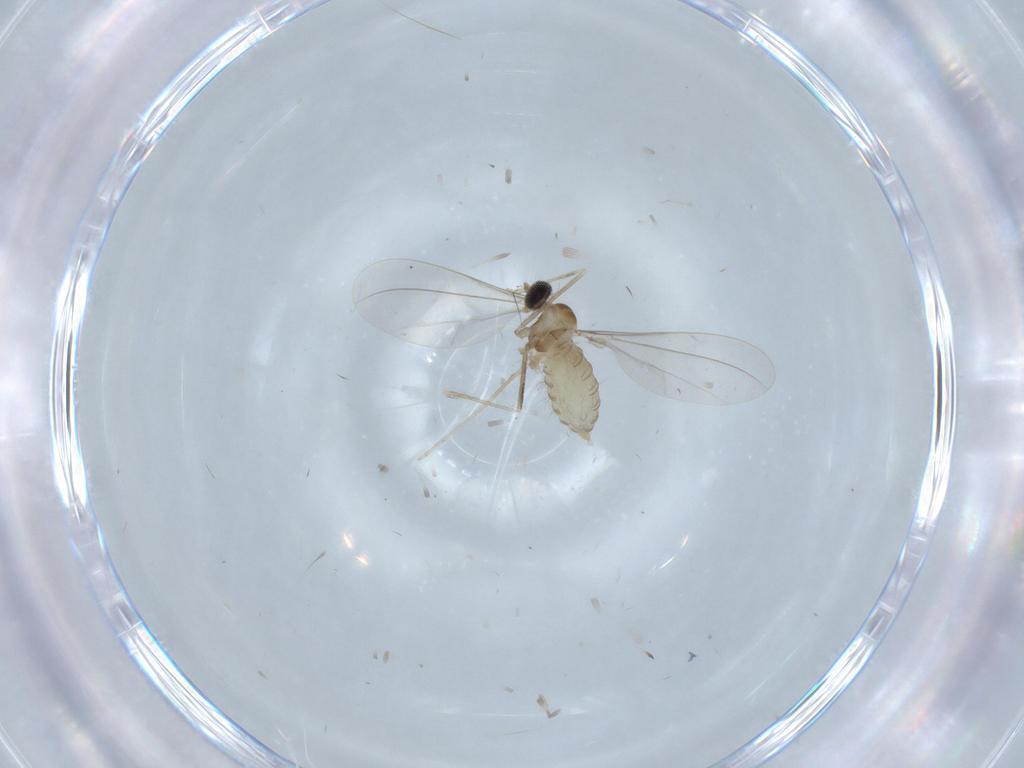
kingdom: Animalia
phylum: Arthropoda
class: Insecta
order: Diptera
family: Cecidomyiidae
